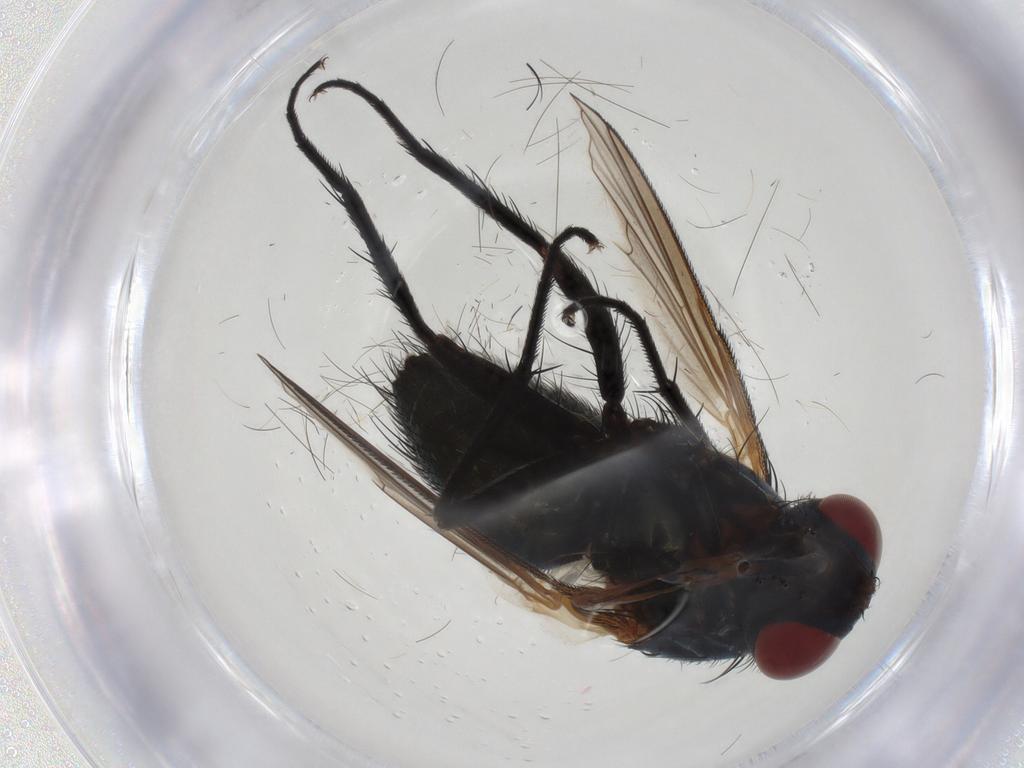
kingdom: Animalia
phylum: Arthropoda
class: Insecta
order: Diptera
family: Tachinidae
